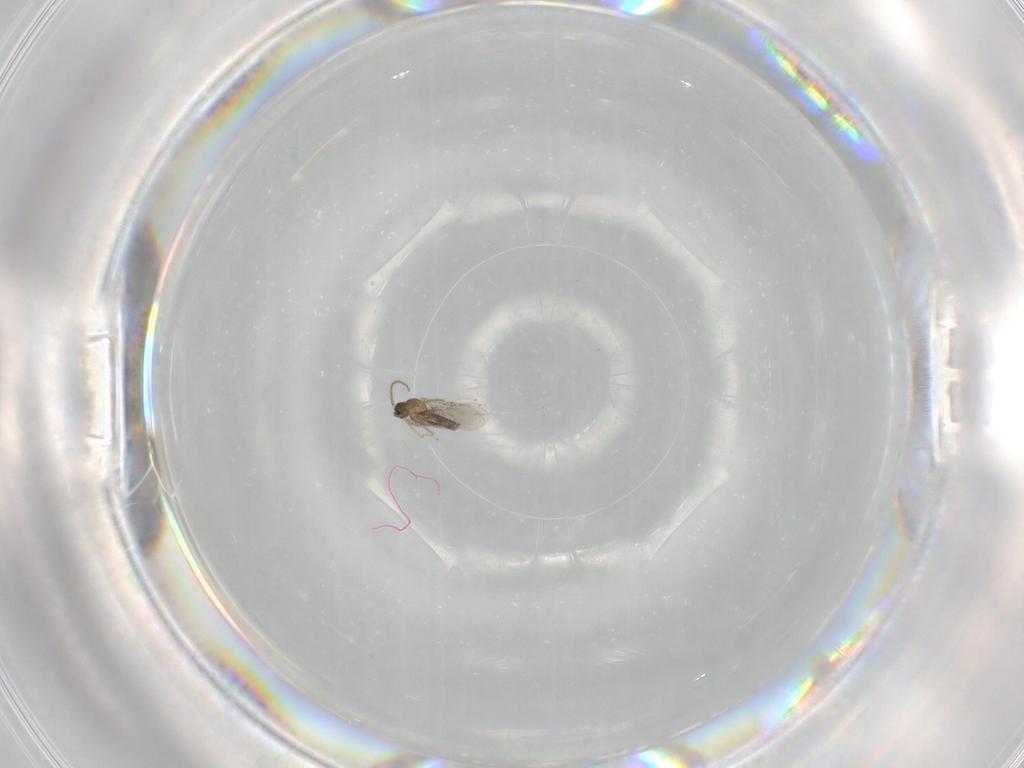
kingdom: Animalia
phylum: Arthropoda
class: Insecta
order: Diptera
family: Cecidomyiidae
